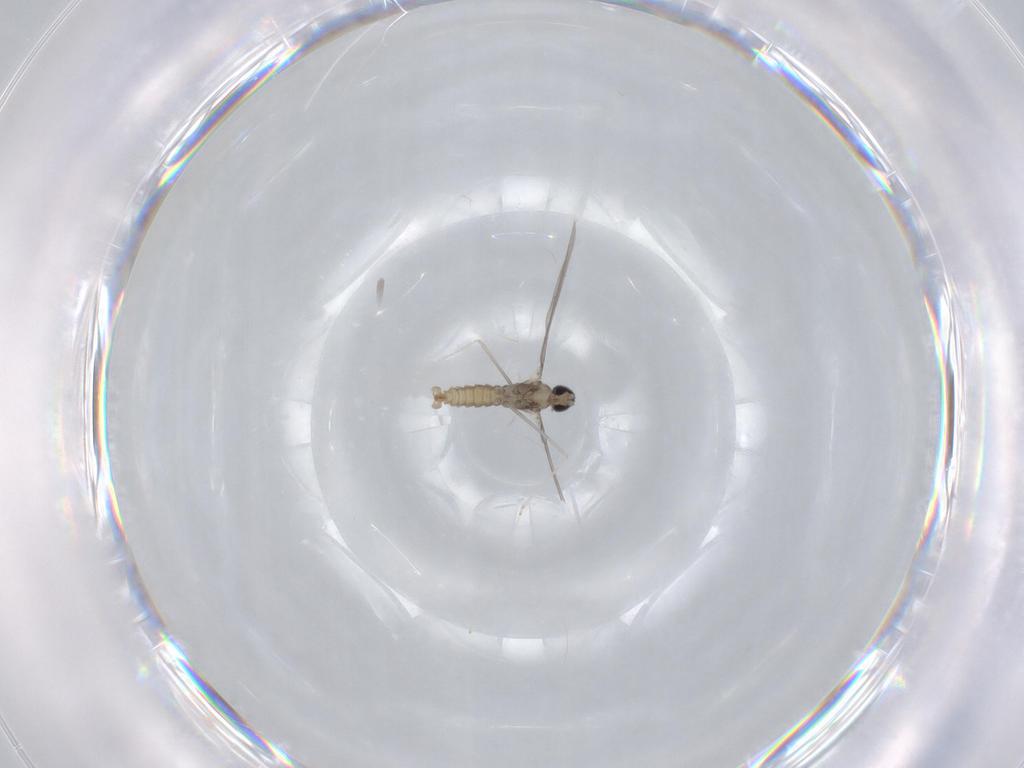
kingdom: Animalia
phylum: Arthropoda
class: Insecta
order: Diptera
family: Cecidomyiidae
